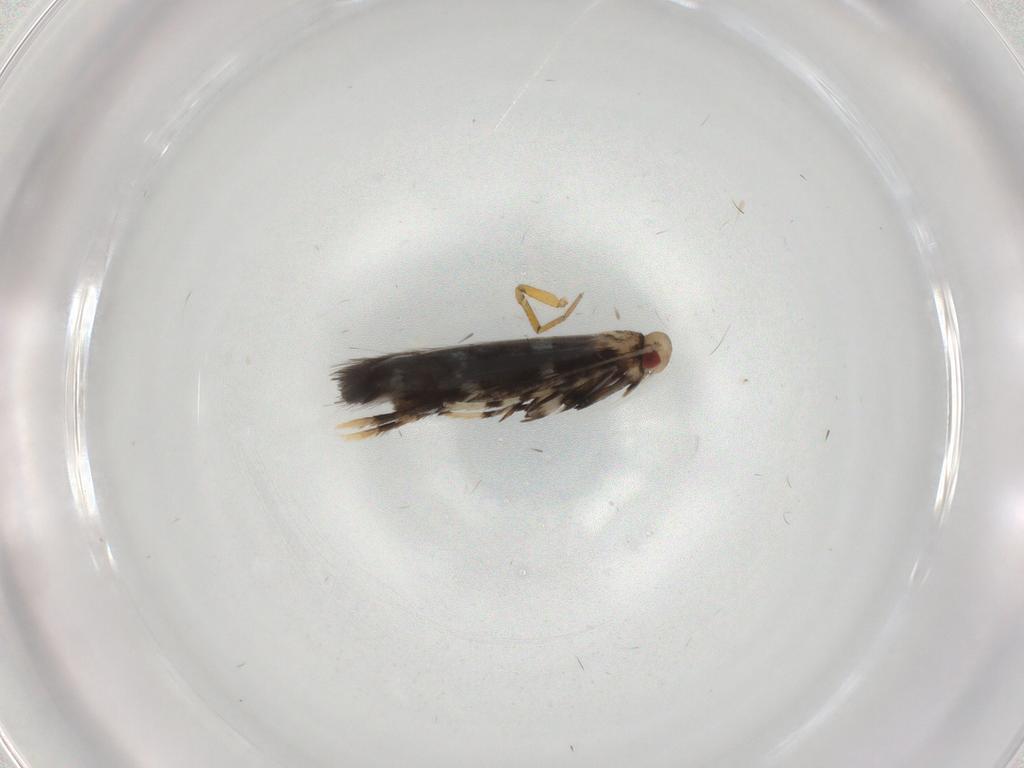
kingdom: Animalia
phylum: Arthropoda
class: Insecta
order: Lepidoptera
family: Gracillariidae
